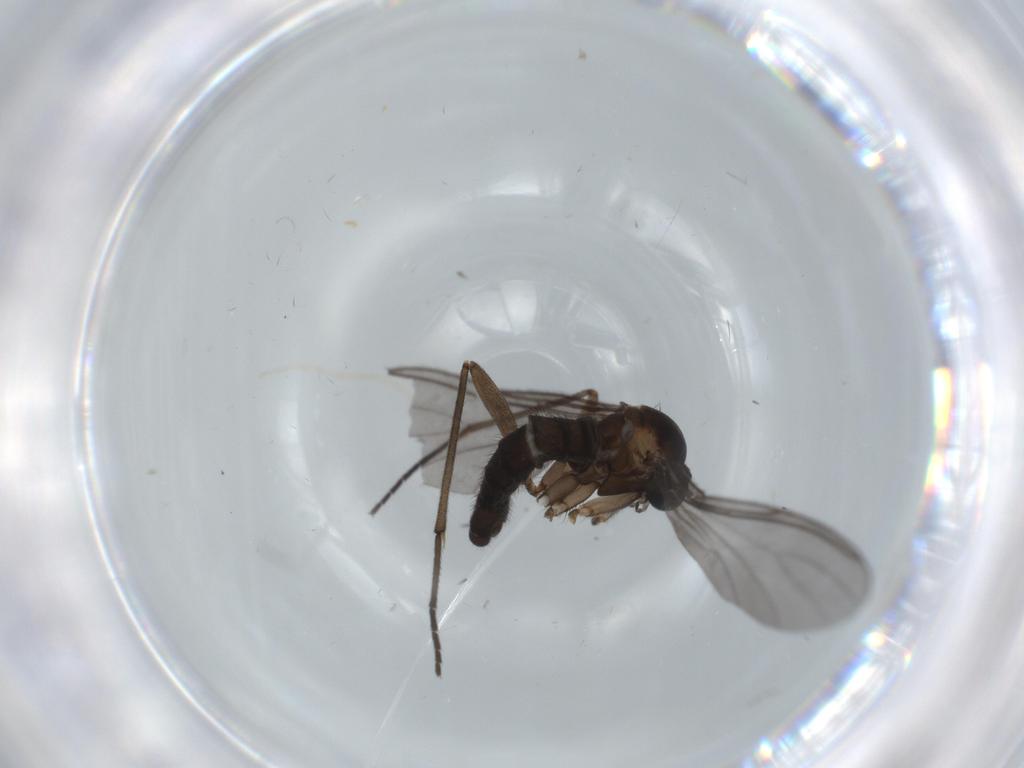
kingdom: Animalia
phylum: Arthropoda
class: Insecta
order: Diptera
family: Sciaridae
